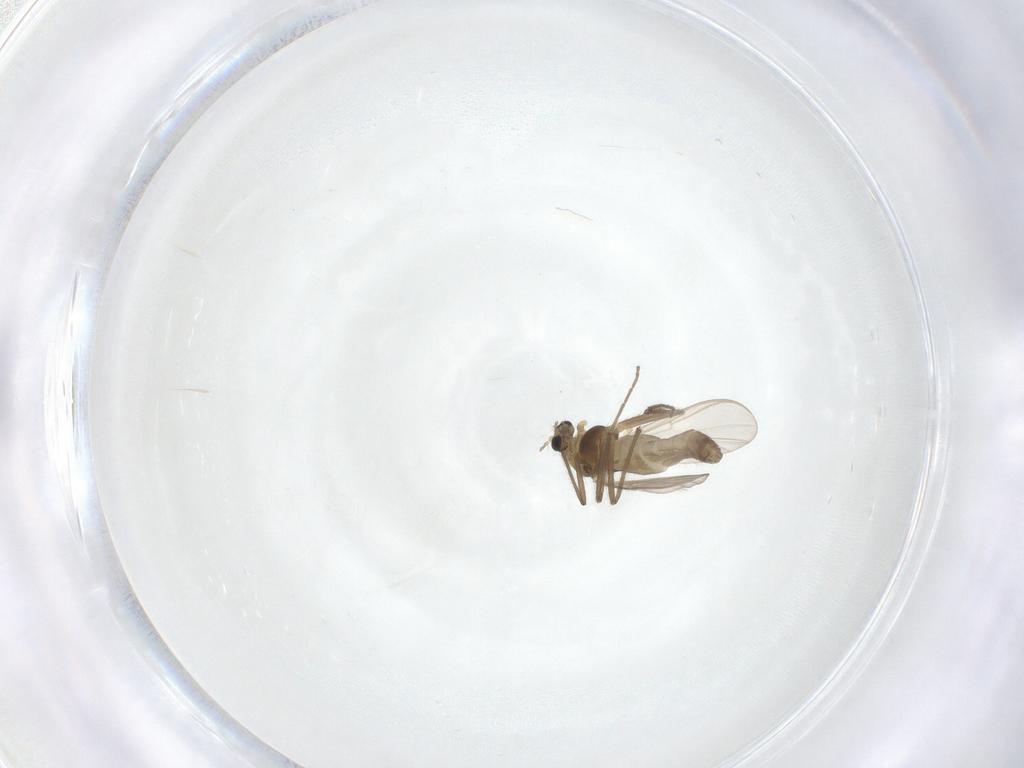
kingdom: Animalia
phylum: Arthropoda
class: Insecta
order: Diptera
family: Chironomidae
